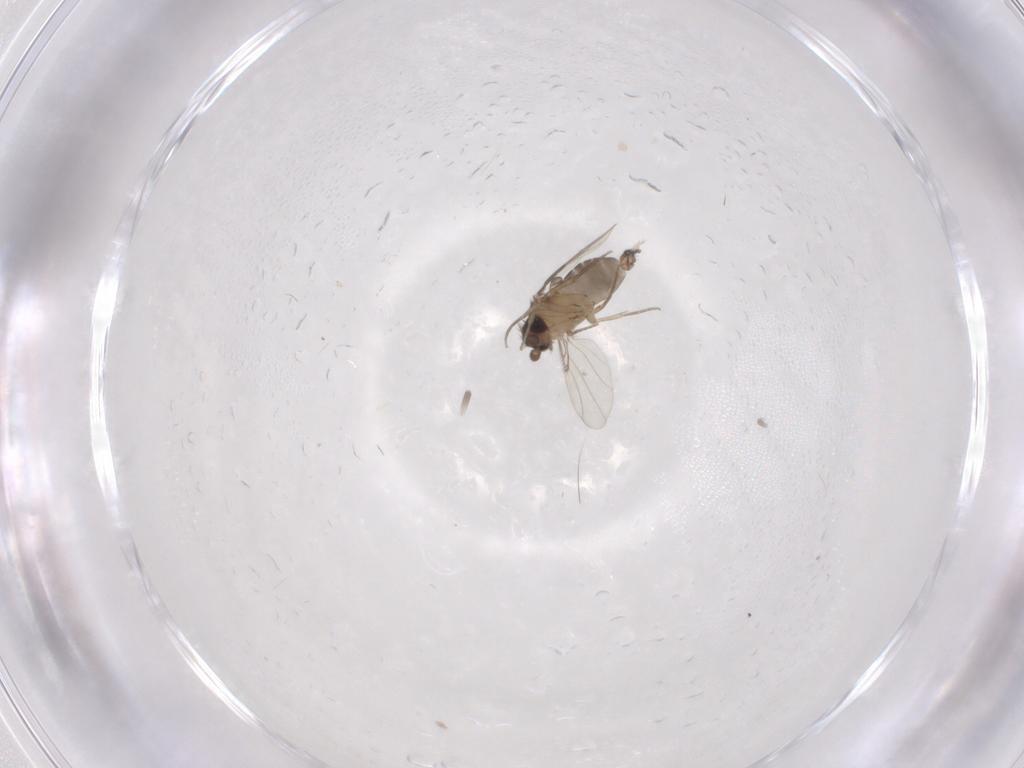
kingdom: Animalia
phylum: Arthropoda
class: Insecta
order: Diptera
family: Phoridae
